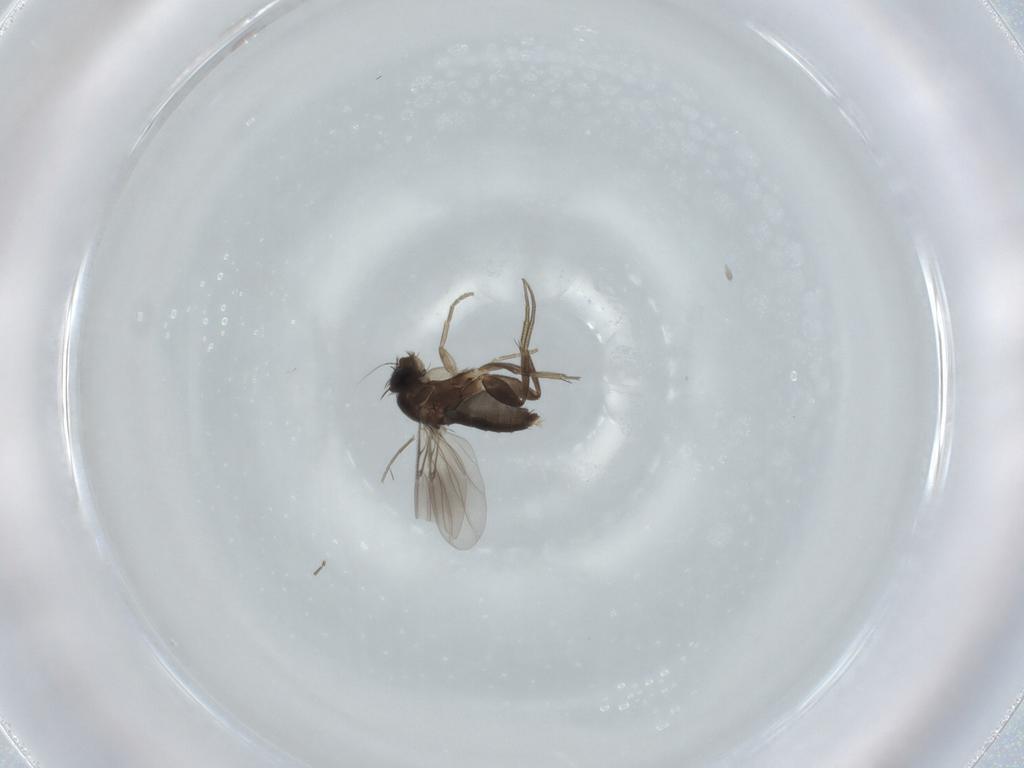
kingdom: Animalia
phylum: Arthropoda
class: Insecta
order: Diptera
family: Phoridae
